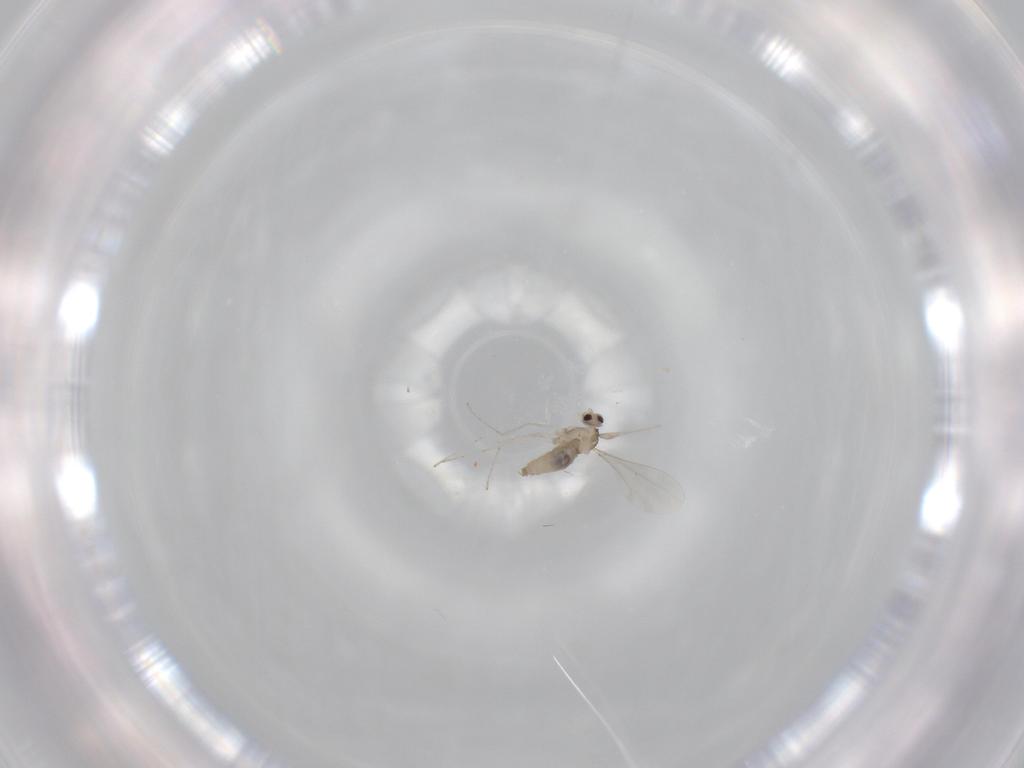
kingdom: Animalia
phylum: Arthropoda
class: Insecta
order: Diptera
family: Cecidomyiidae
